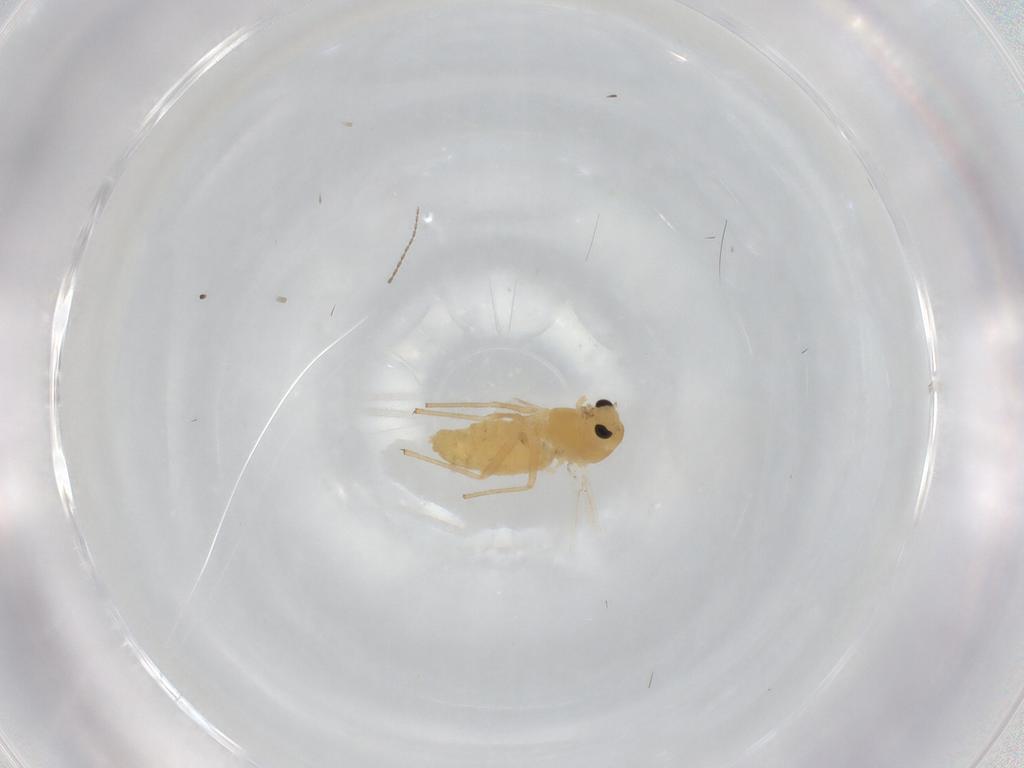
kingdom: Animalia
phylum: Arthropoda
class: Insecta
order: Diptera
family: Chironomidae
